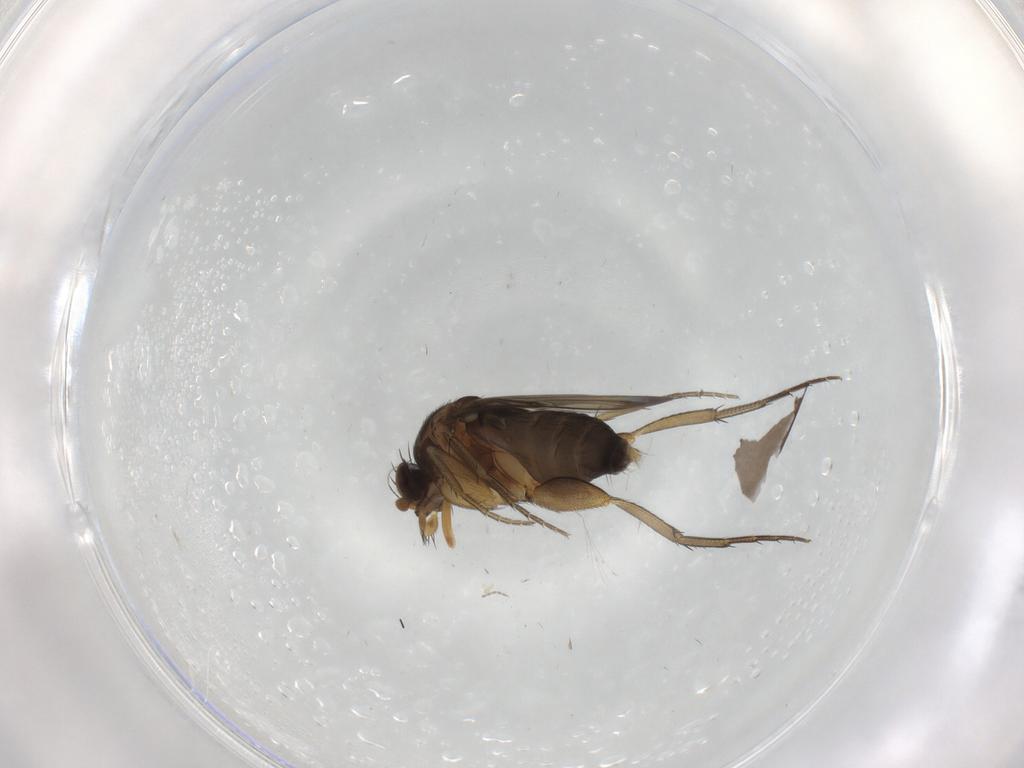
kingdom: Animalia
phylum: Arthropoda
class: Insecta
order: Diptera
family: Phoridae
